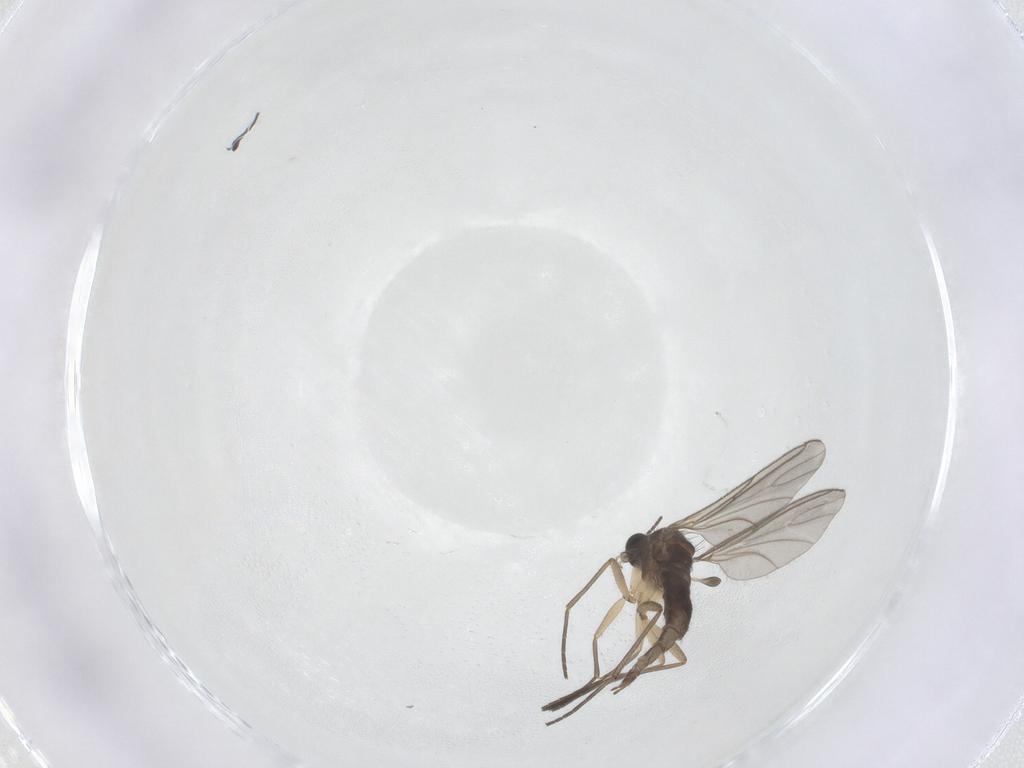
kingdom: Animalia
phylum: Arthropoda
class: Insecta
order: Diptera
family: Sciaridae
